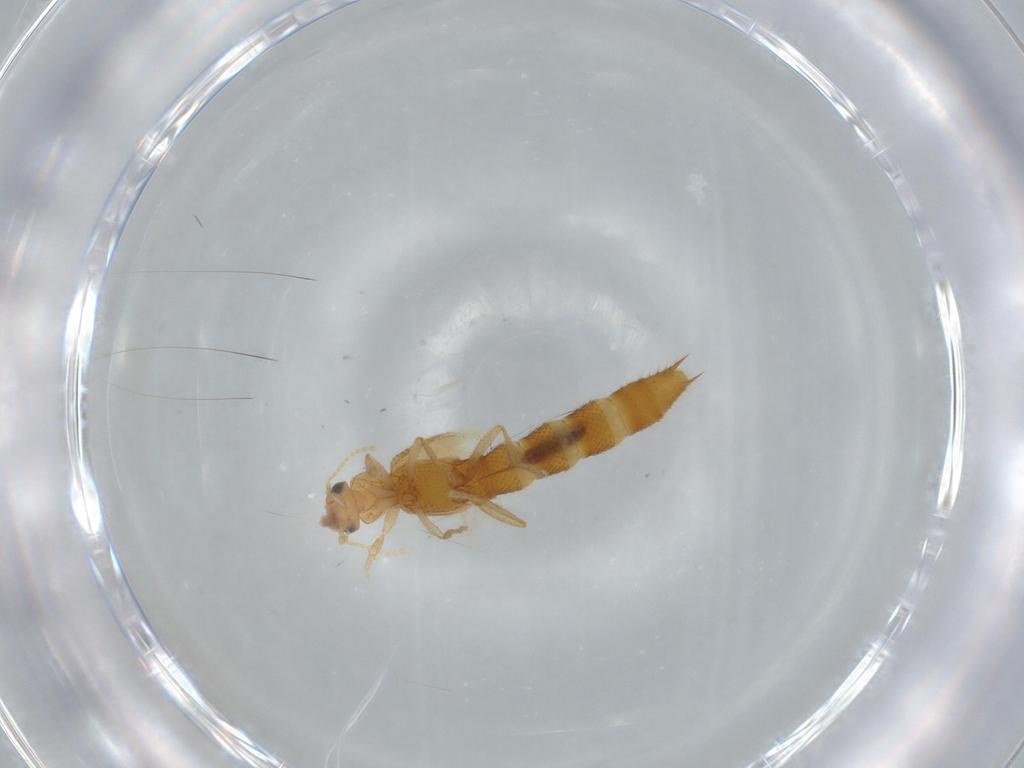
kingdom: Animalia
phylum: Arthropoda
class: Insecta
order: Coleoptera
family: Staphylinidae
